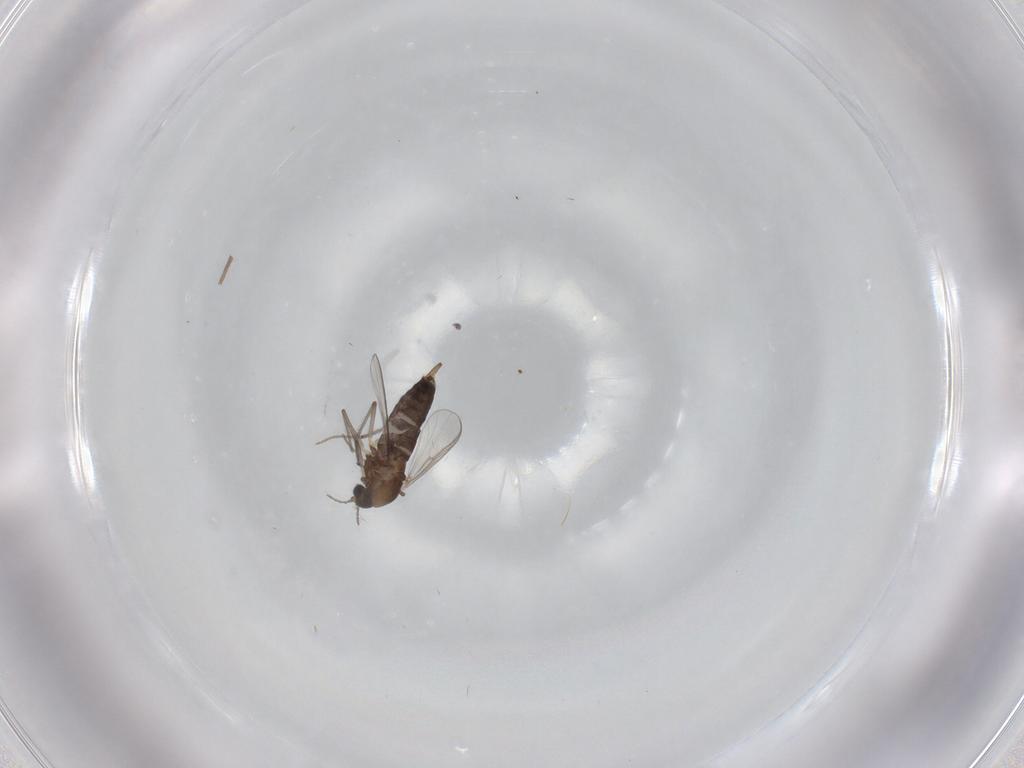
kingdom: Animalia
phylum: Arthropoda
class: Insecta
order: Diptera
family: Chironomidae
